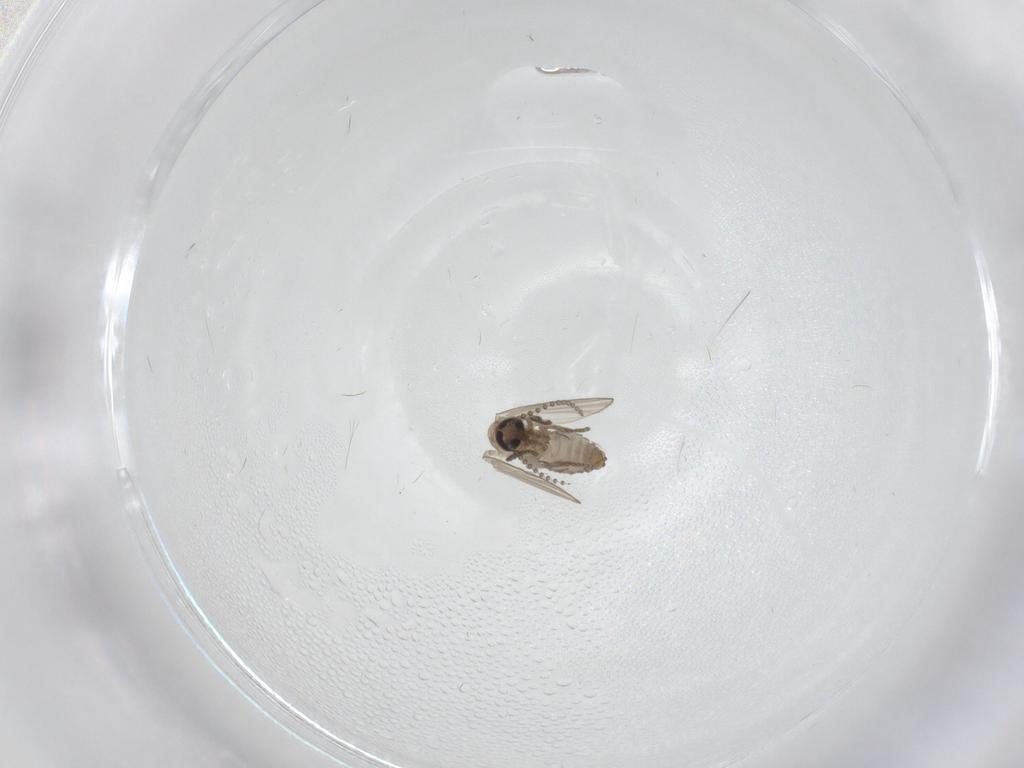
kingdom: Animalia
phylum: Arthropoda
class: Insecta
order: Diptera
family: Psychodidae
